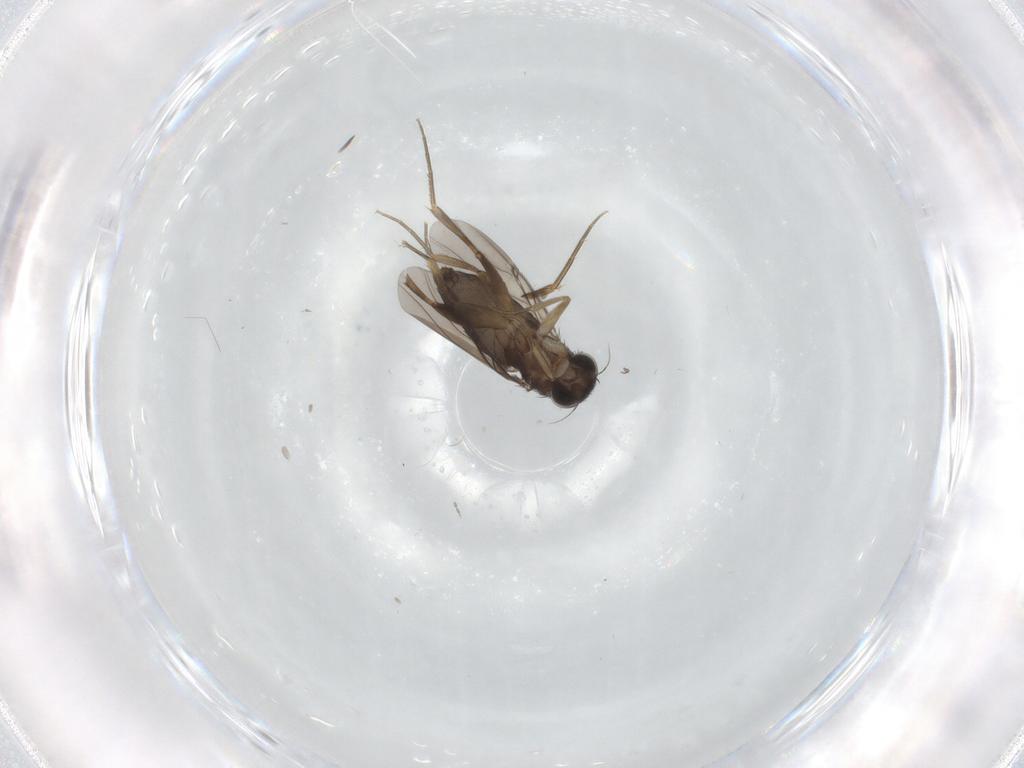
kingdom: Animalia
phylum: Arthropoda
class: Insecta
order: Diptera
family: Phoridae
